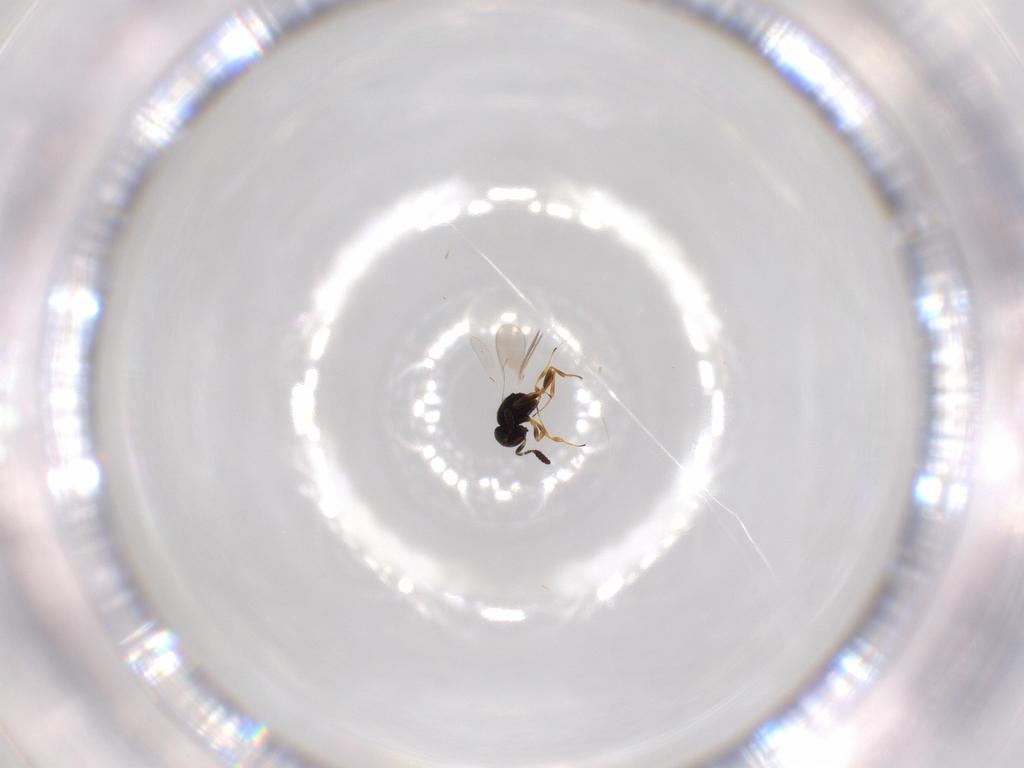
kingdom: Animalia
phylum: Arthropoda
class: Insecta
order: Hymenoptera
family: Scelionidae
